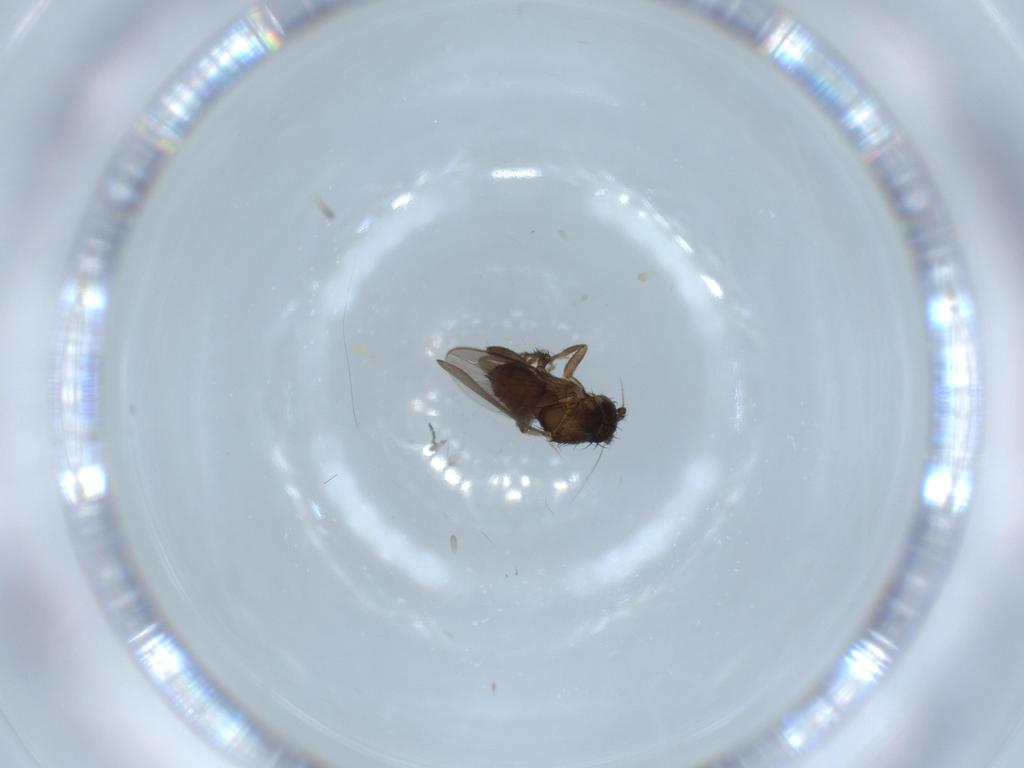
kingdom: Animalia
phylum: Arthropoda
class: Insecta
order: Diptera
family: Sphaeroceridae
